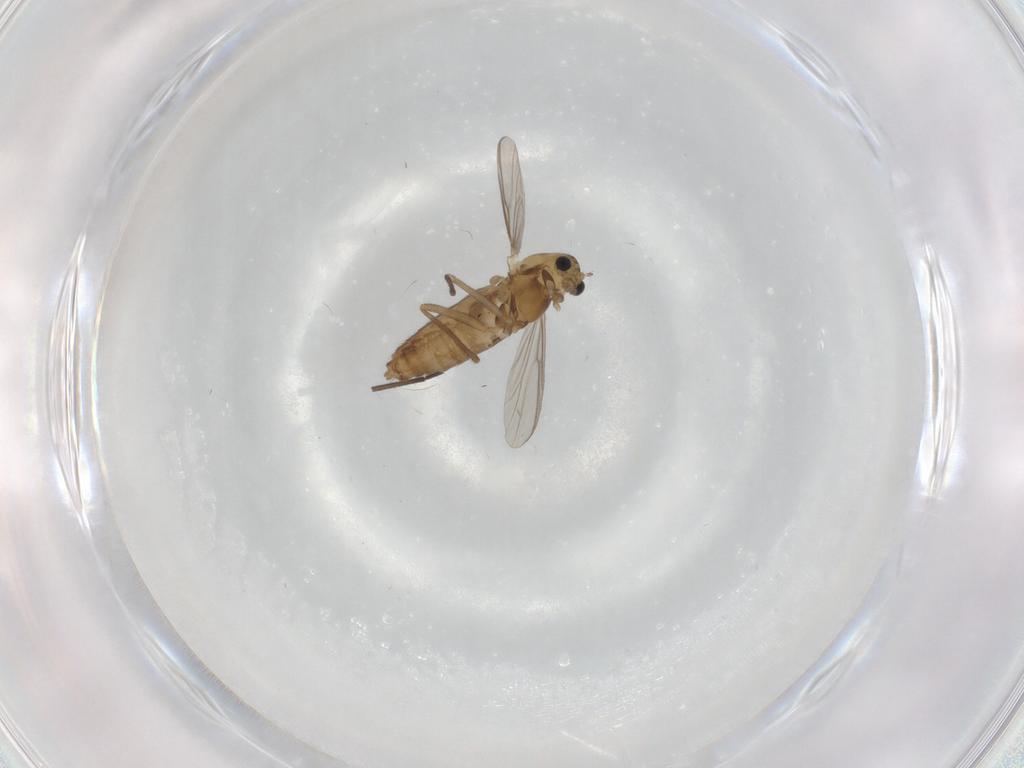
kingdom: Animalia
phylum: Arthropoda
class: Insecta
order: Diptera
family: Chironomidae
